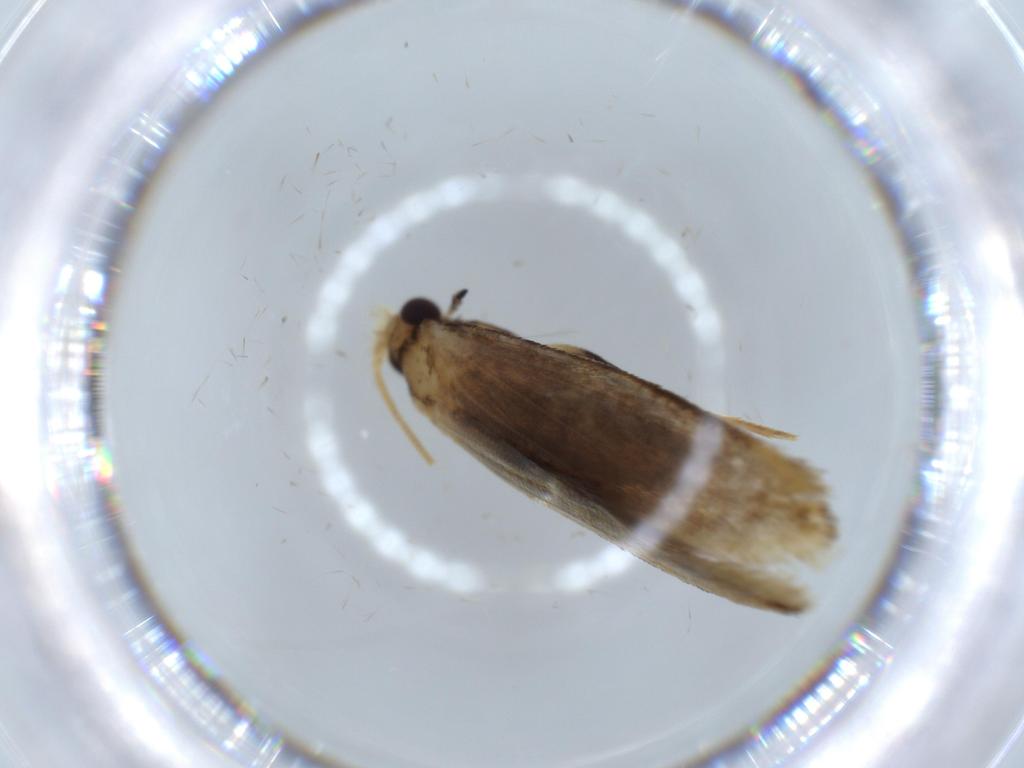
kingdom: Animalia
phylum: Arthropoda
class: Insecta
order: Lepidoptera
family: Tineidae
